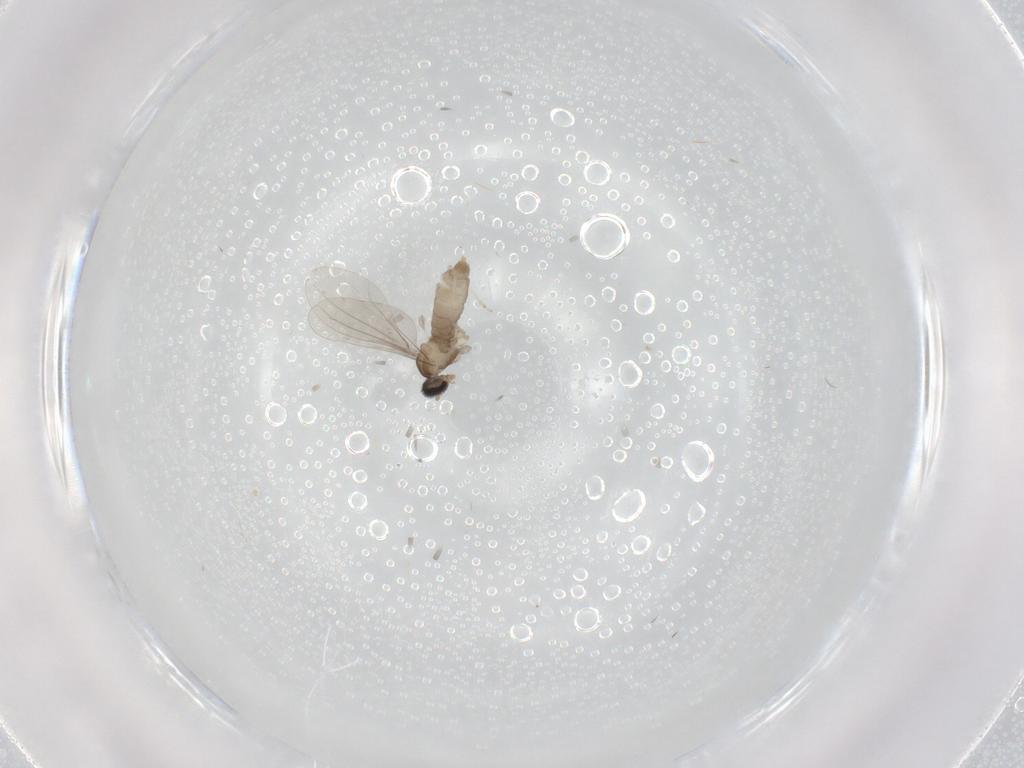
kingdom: Animalia
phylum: Arthropoda
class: Insecta
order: Diptera
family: Cecidomyiidae
